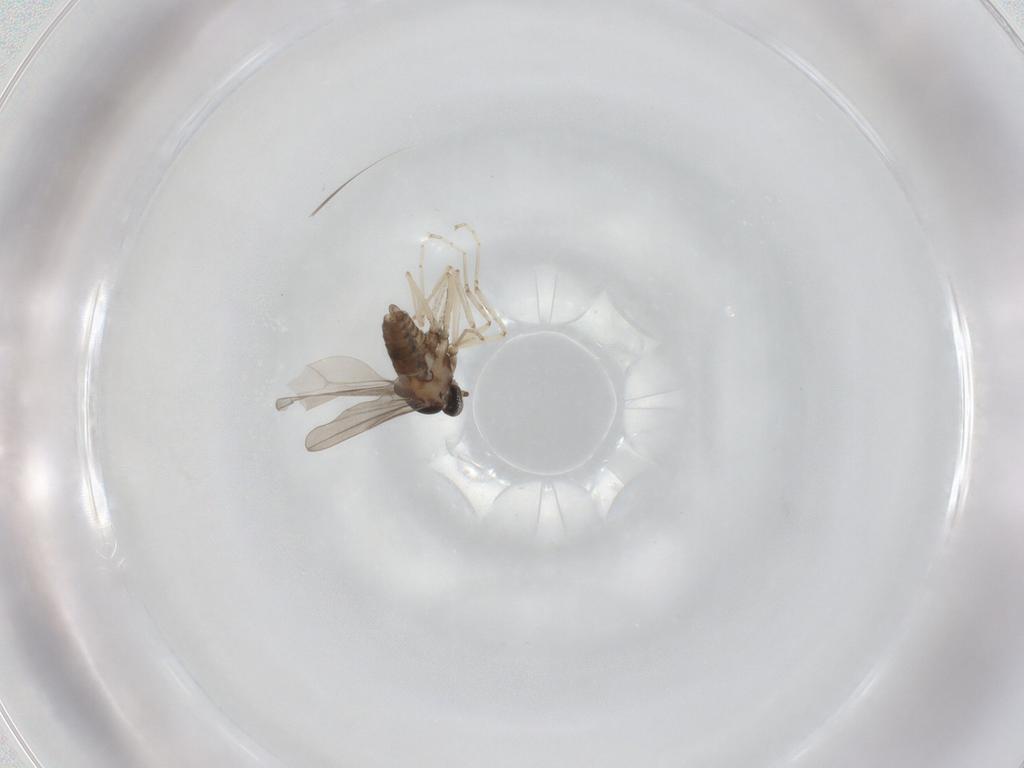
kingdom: Animalia
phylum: Arthropoda
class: Insecta
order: Diptera
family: Cecidomyiidae
